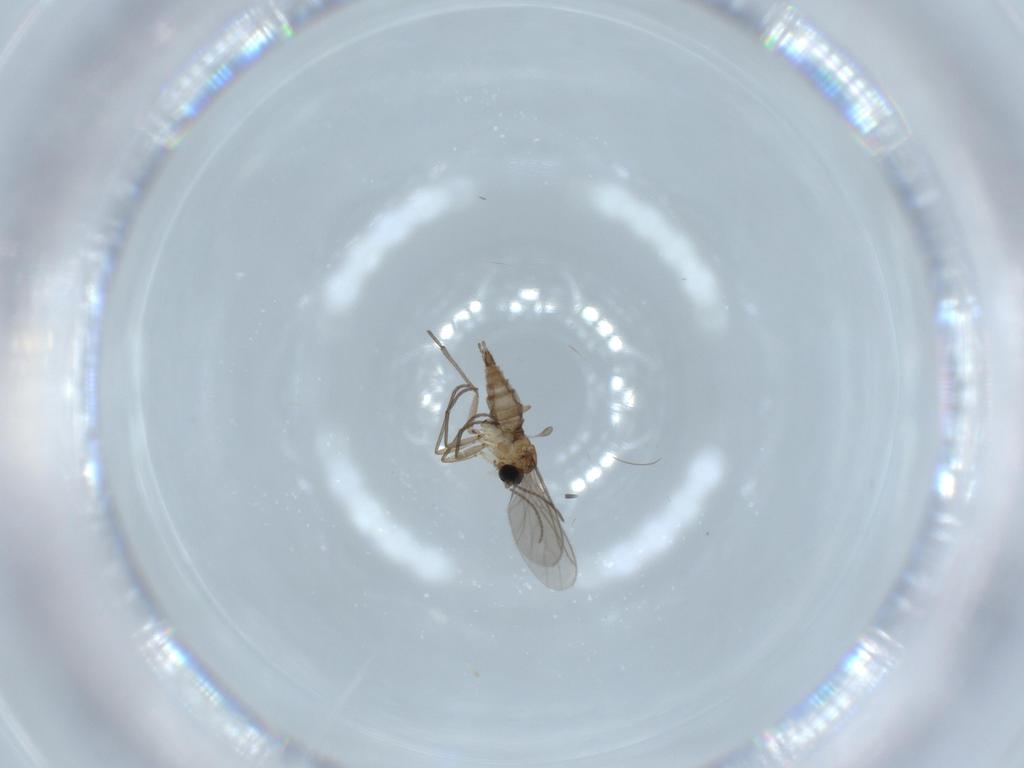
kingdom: Animalia
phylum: Arthropoda
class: Insecta
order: Diptera
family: Sciaridae
